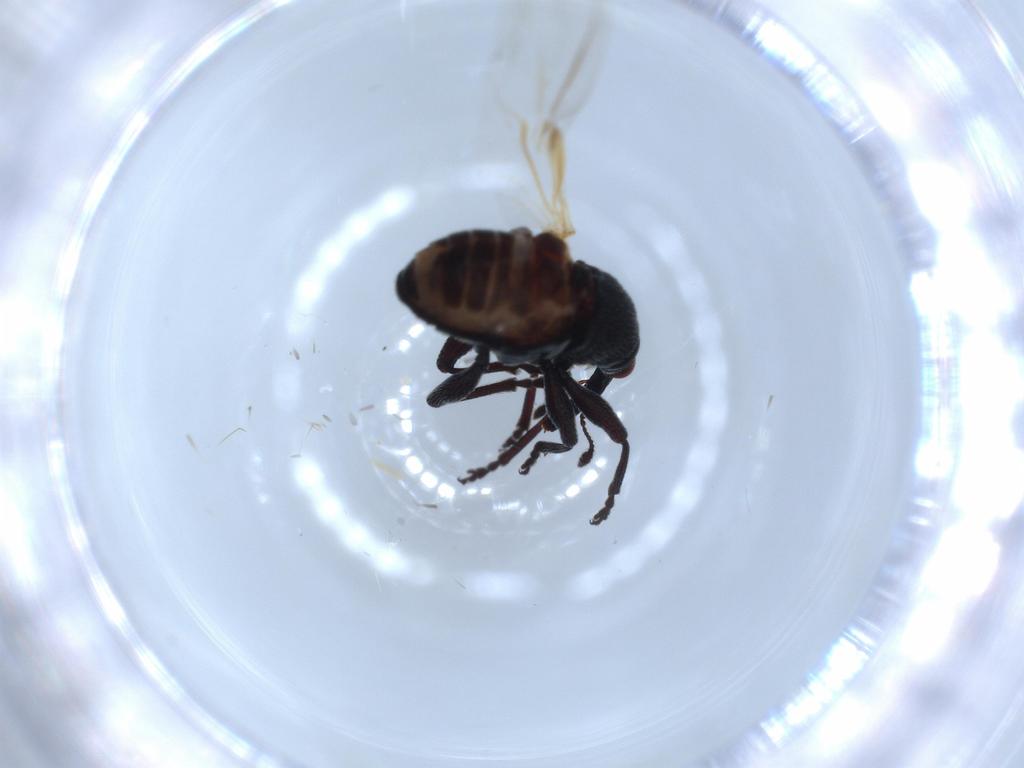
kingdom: Animalia
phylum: Arthropoda
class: Insecta
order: Coleoptera
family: Brentidae
